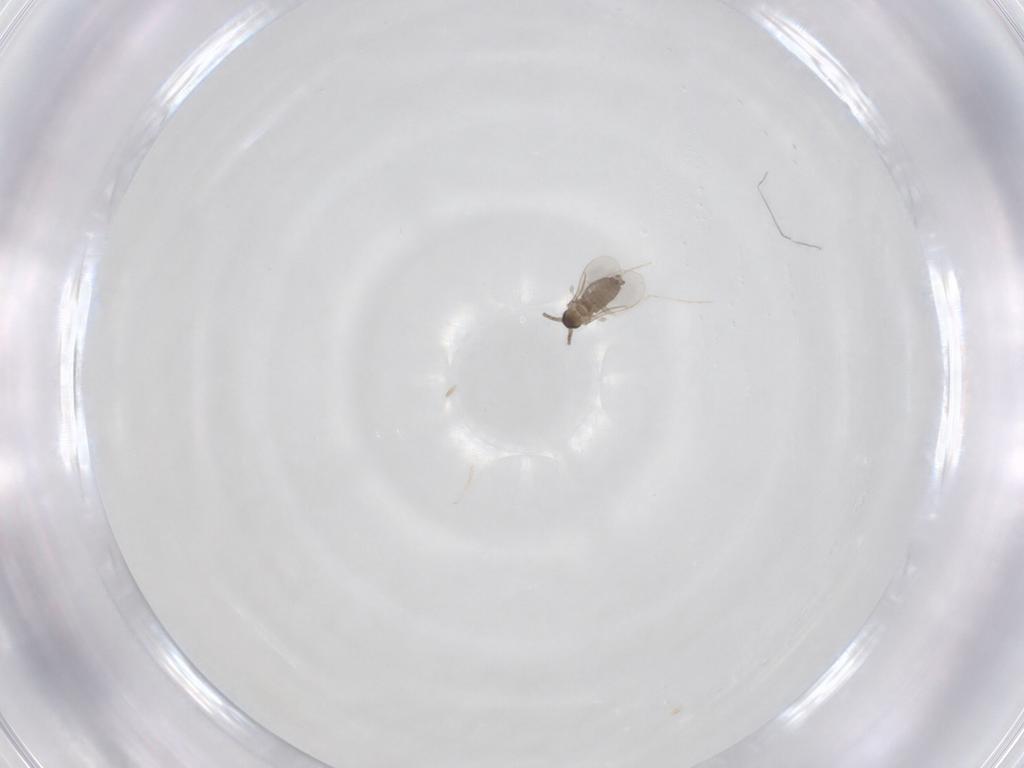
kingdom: Animalia
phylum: Arthropoda
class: Insecta
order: Diptera
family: Cecidomyiidae
